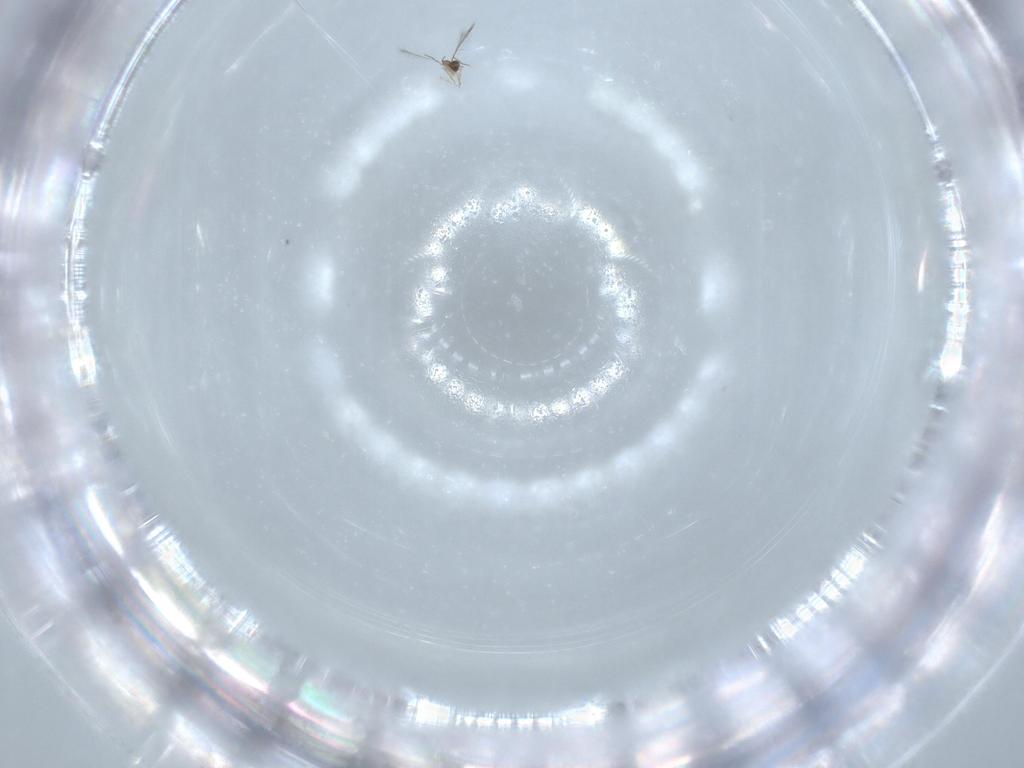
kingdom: Animalia
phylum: Arthropoda
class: Insecta
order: Hymenoptera
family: Mymaridae
